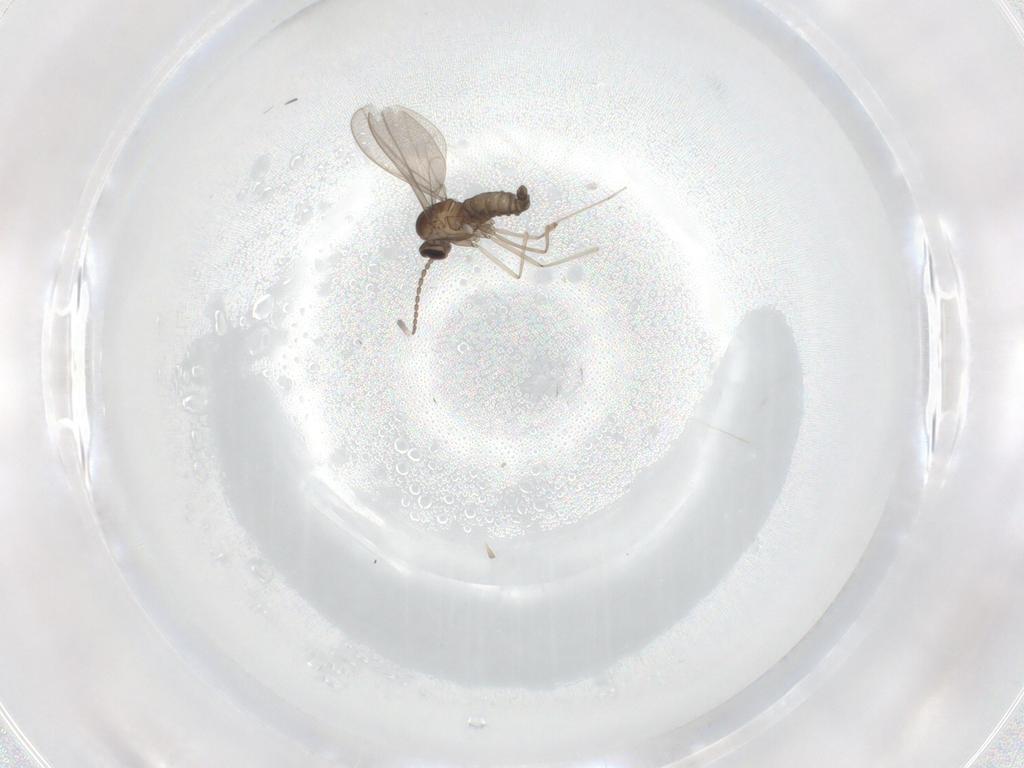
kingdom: Animalia
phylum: Arthropoda
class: Insecta
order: Diptera
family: Cecidomyiidae
